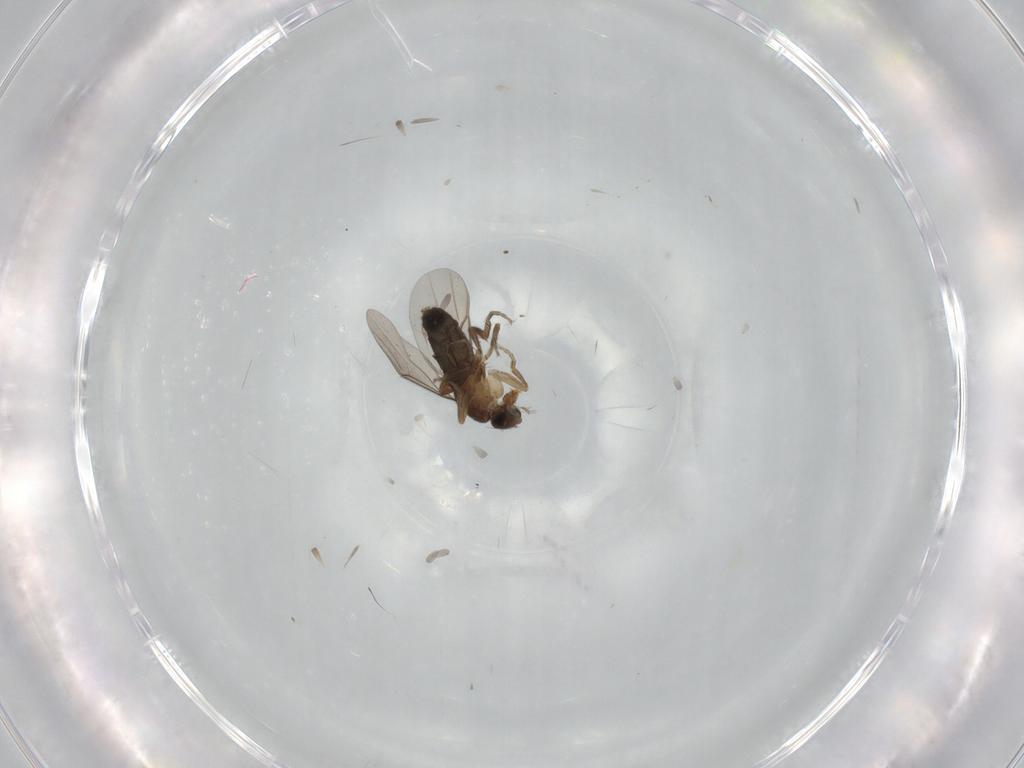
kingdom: Animalia
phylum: Arthropoda
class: Insecta
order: Diptera
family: Phoridae
